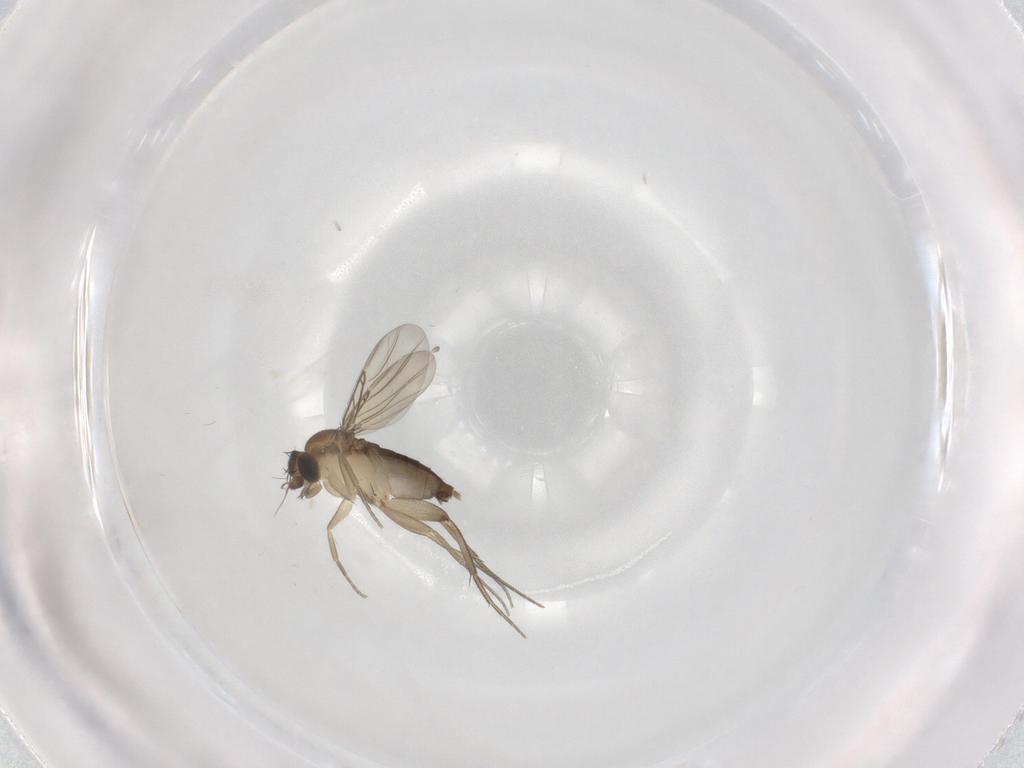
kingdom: Animalia
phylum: Arthropoda
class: Insecta
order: Diptera
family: Phoridae
